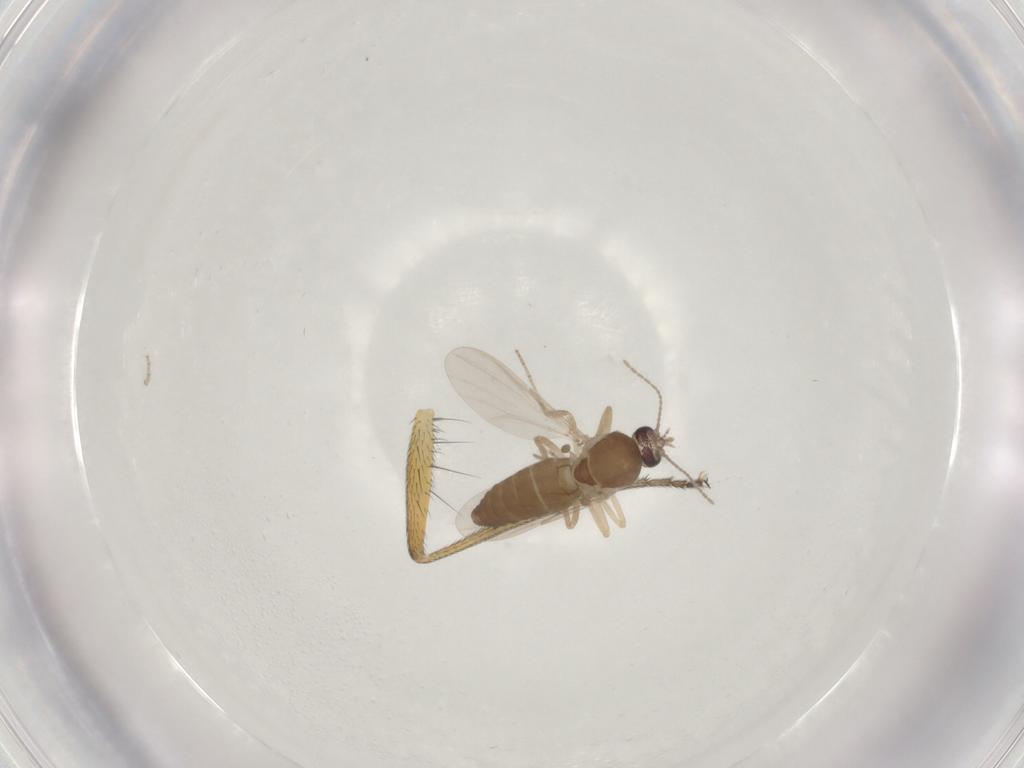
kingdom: Animalia
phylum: Arthropoda
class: Insecta
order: Diptera
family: Ceratopogonidae
